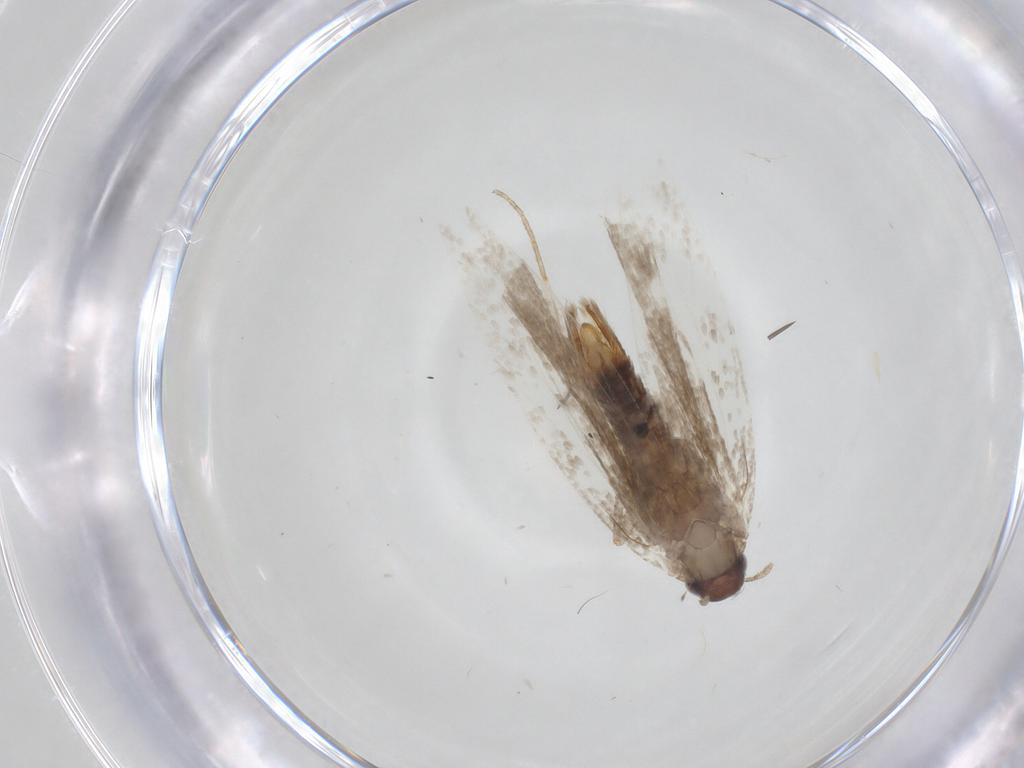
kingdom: Animalia
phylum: Arthropoda
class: Insecta
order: Lepidoptera
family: Gelechiidae
